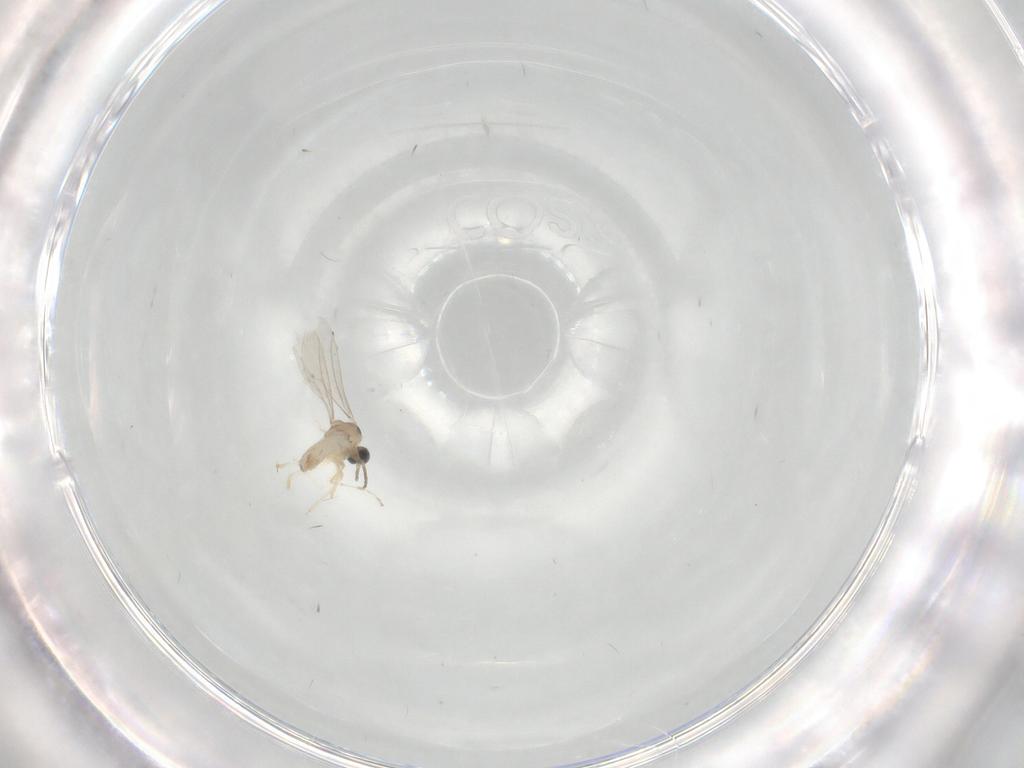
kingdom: Animalia
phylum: Arthropoda
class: Insecta
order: Diptera
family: Cecidomyiidae
